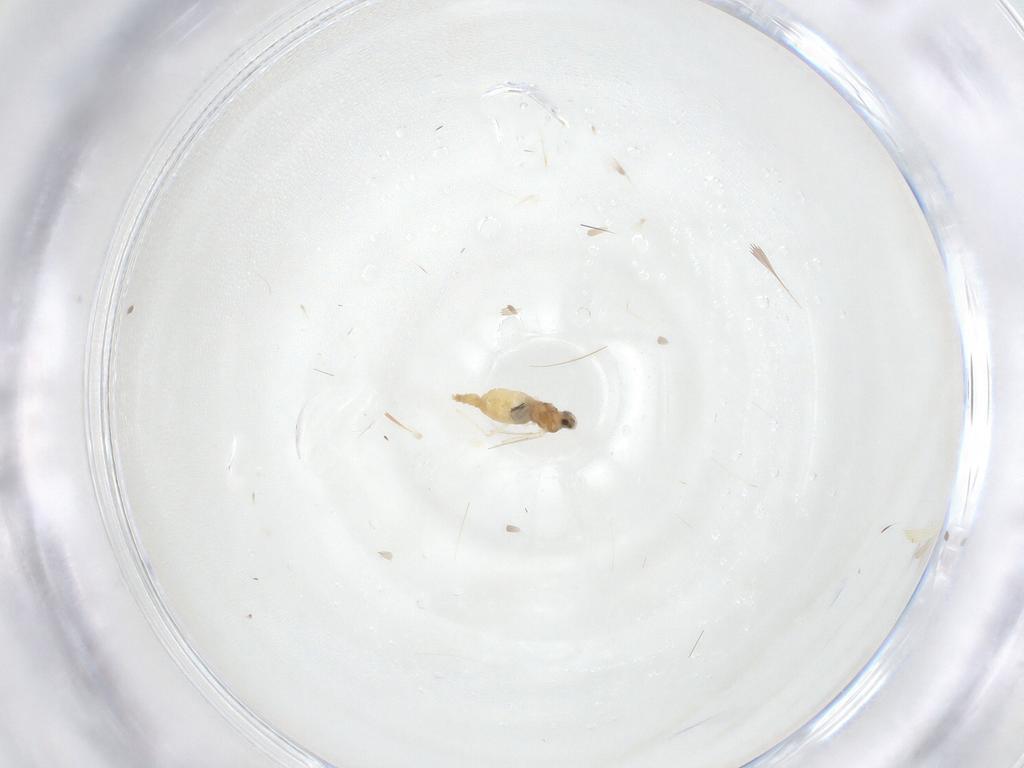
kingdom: Animalia
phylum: Arthropoda
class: Insecta
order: Diptera
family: Cecidomyiidae
